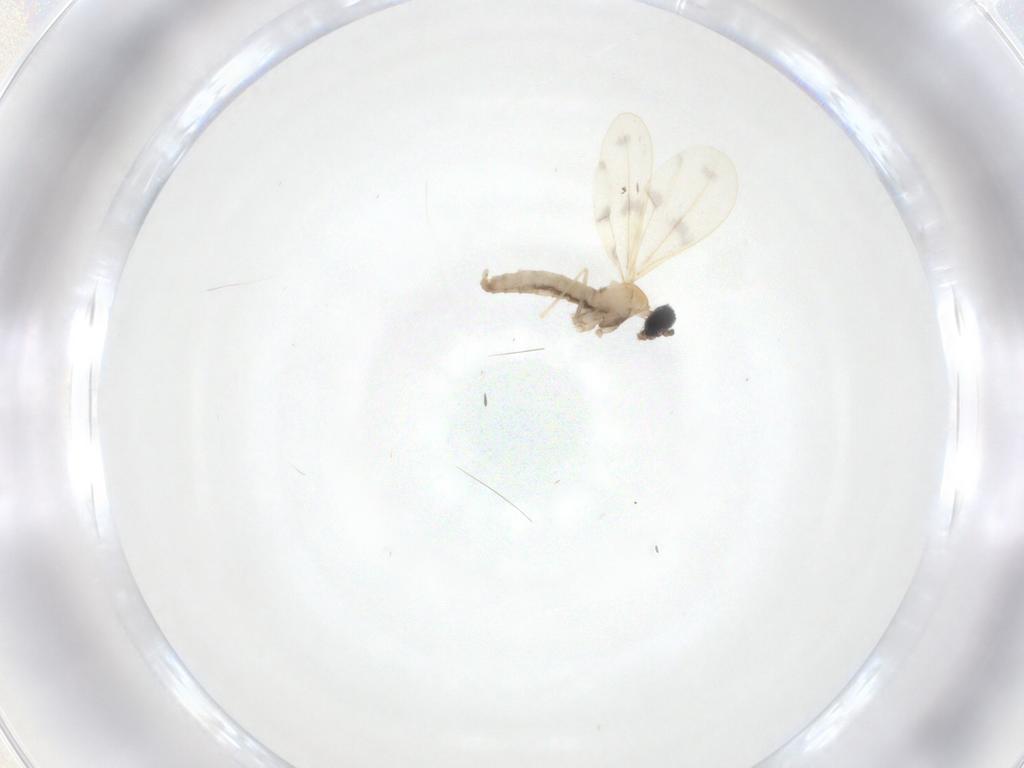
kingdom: Animalia
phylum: Arthropoda
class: Insecta
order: Diptera
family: Cecidomyiidae
